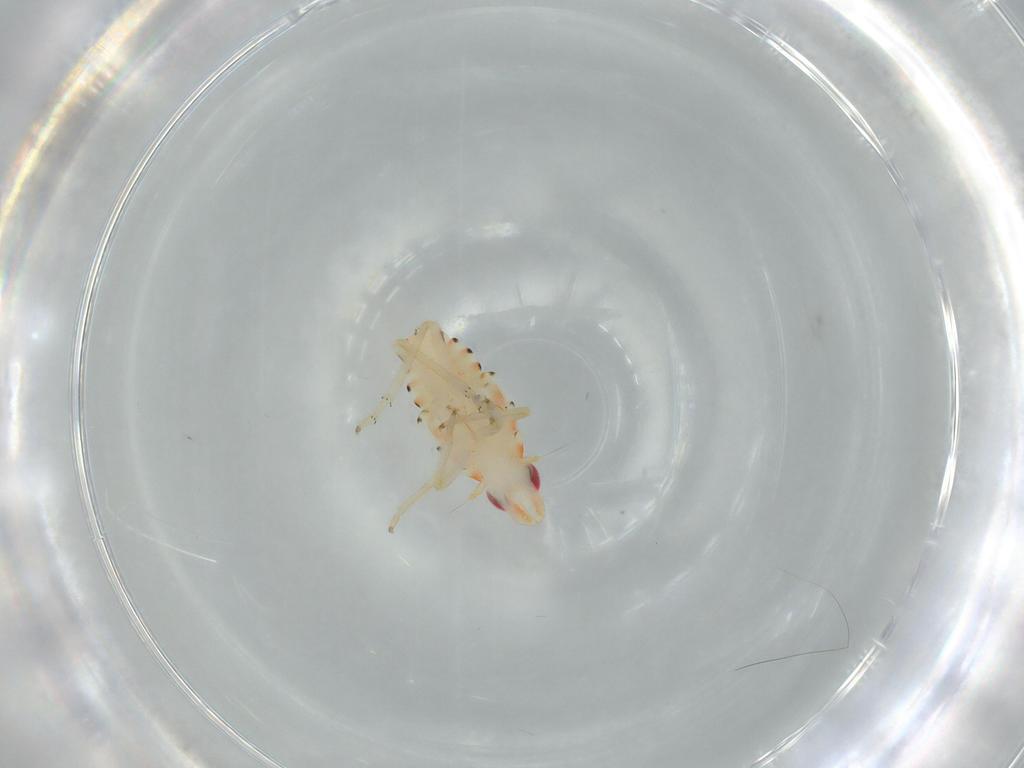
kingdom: Animalia
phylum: Arthropoda
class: Insecta
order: Hemiptera
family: Tropiduchidae
